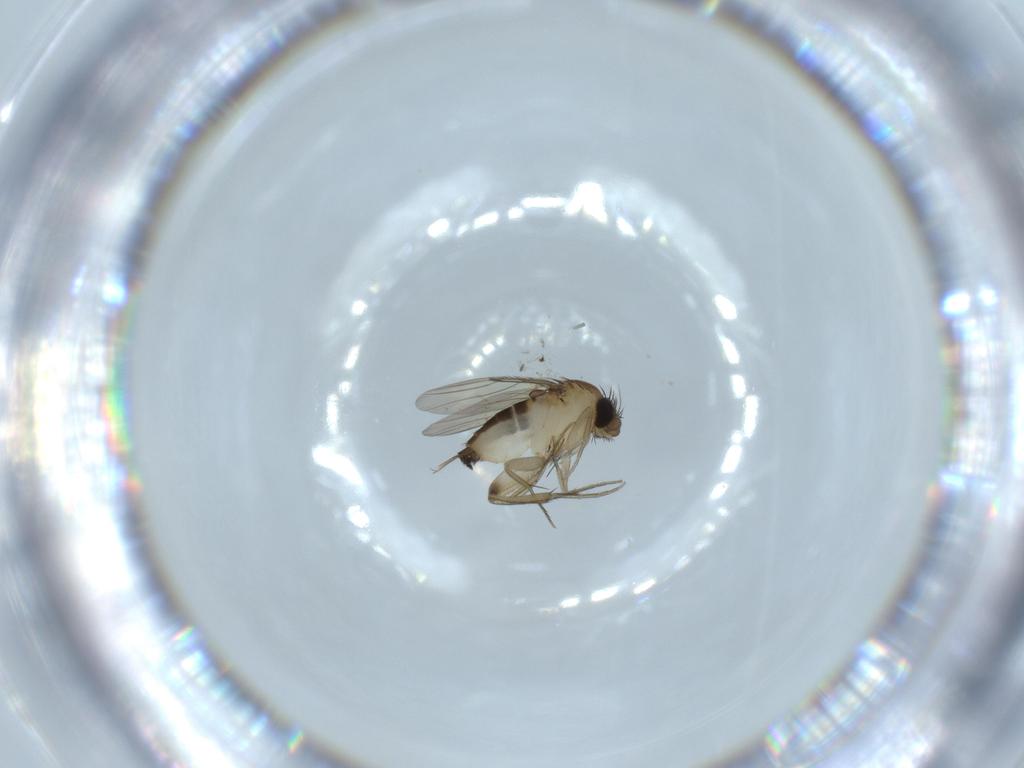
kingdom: Animalia
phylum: Arthropoda
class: Insecta
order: Diptera
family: Phoridae
